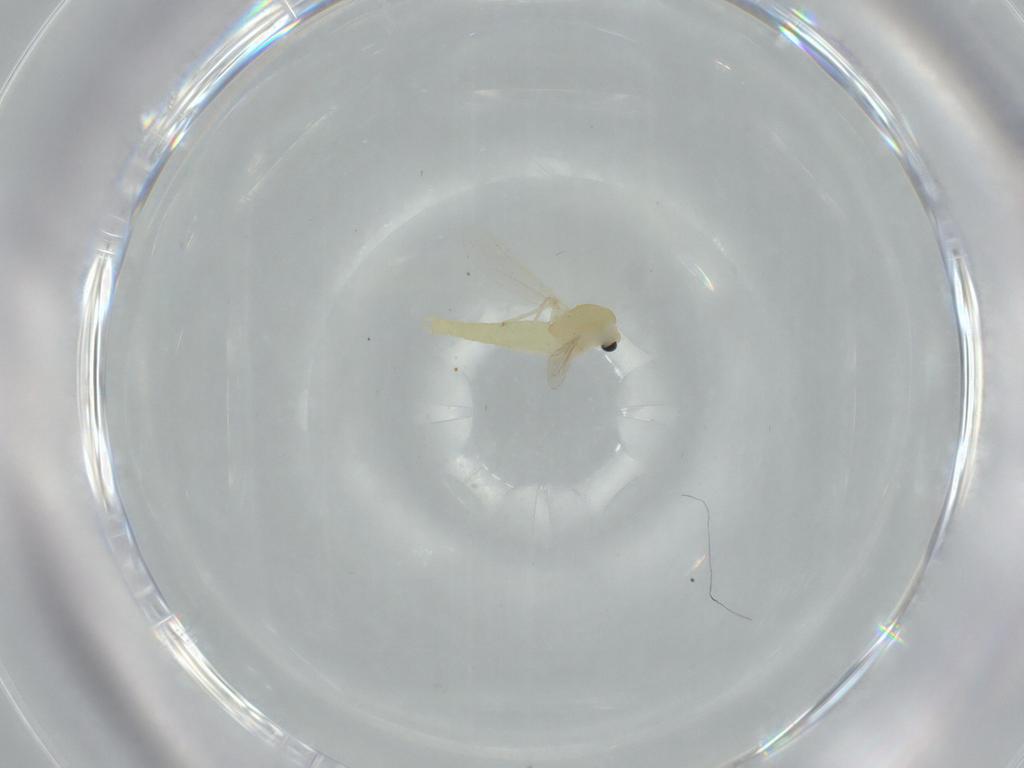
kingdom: Animalia
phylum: Arthropoda
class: Insecta
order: Diptera
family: Chironomidae
